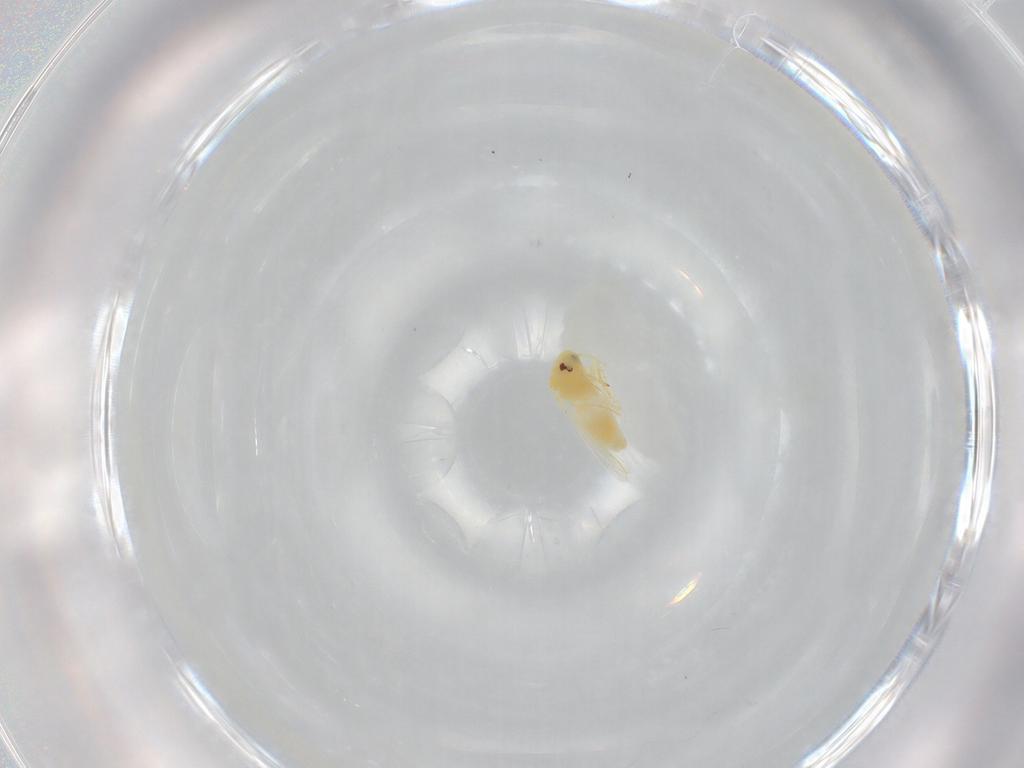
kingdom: Animalia
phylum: Arthropoda
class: Insecta
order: Hemiptera
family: Aleyrodidae
